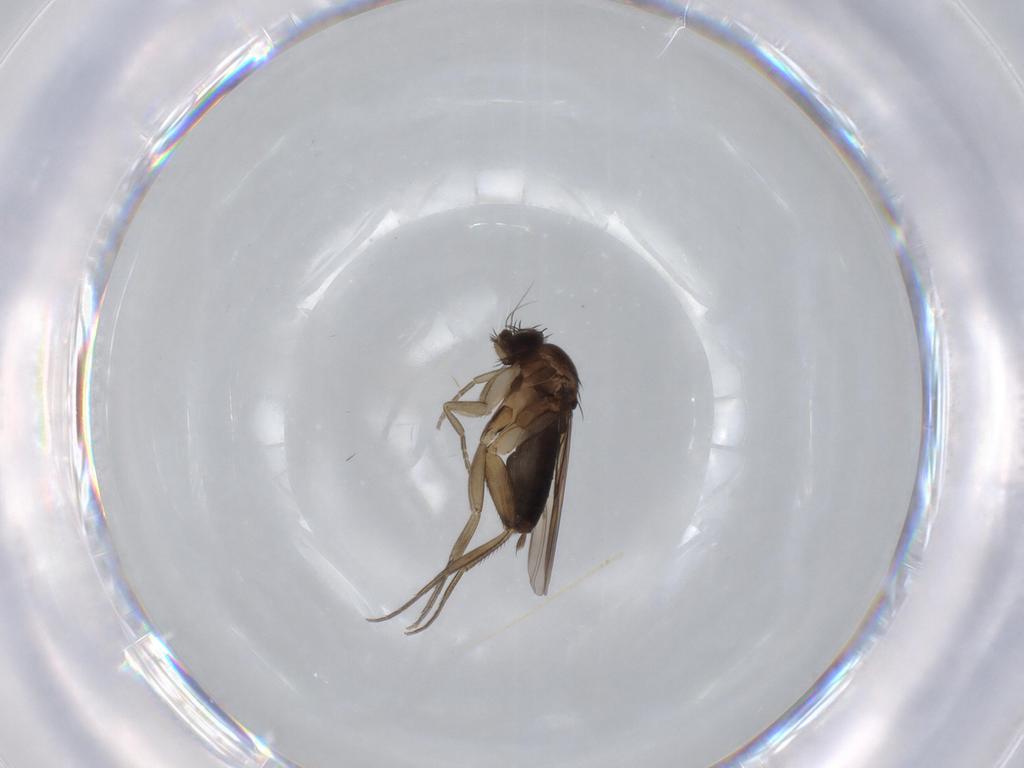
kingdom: Animalia
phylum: Arthropoda
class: Insecta
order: Diptera
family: Phoridae
